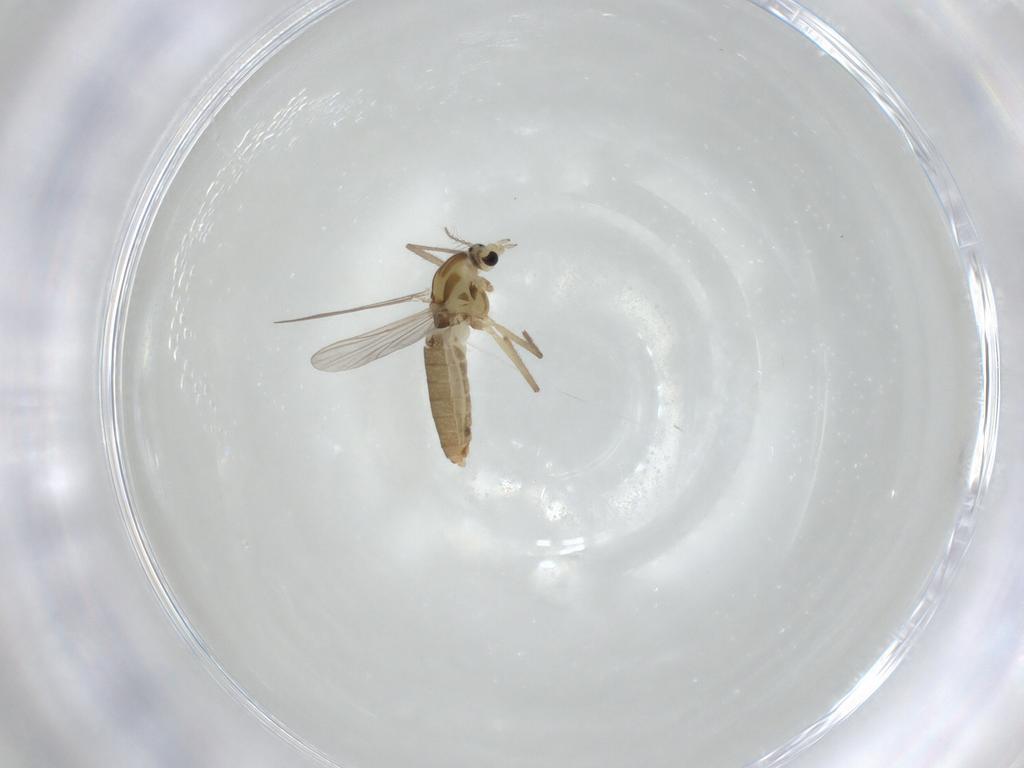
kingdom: Animalia
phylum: Arthropoda
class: Insecta
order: Diptera
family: Chironomidae
